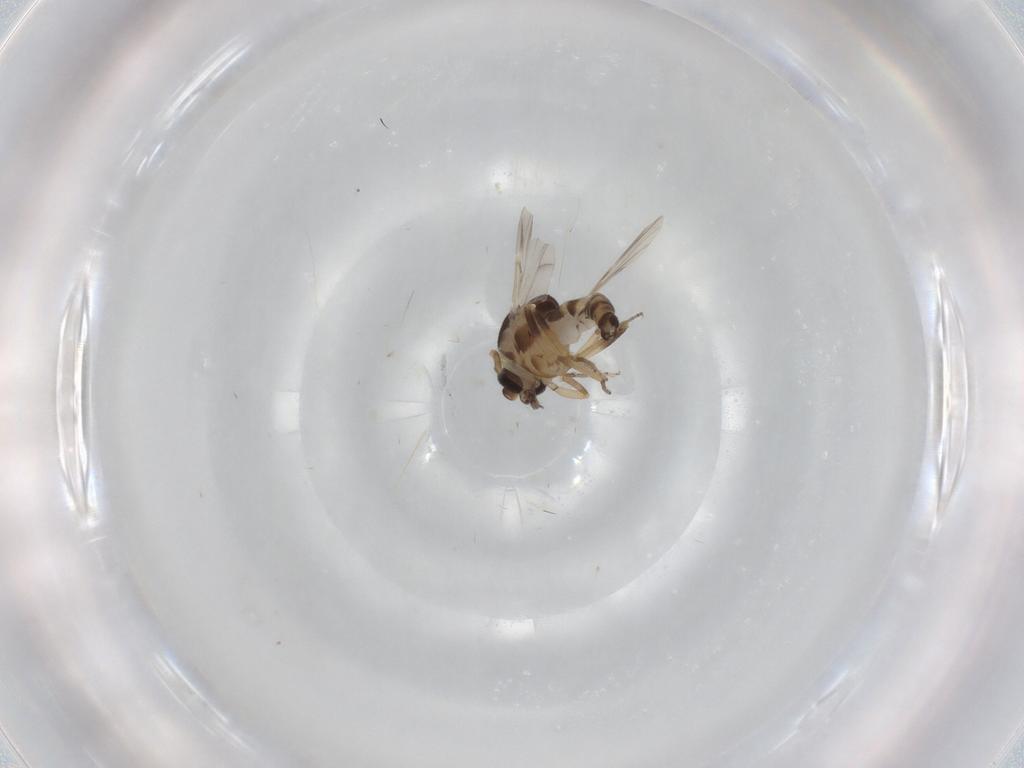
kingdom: Animalia
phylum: Arthropoda
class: Insecta
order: Diptera
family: Ceratopogonidae
